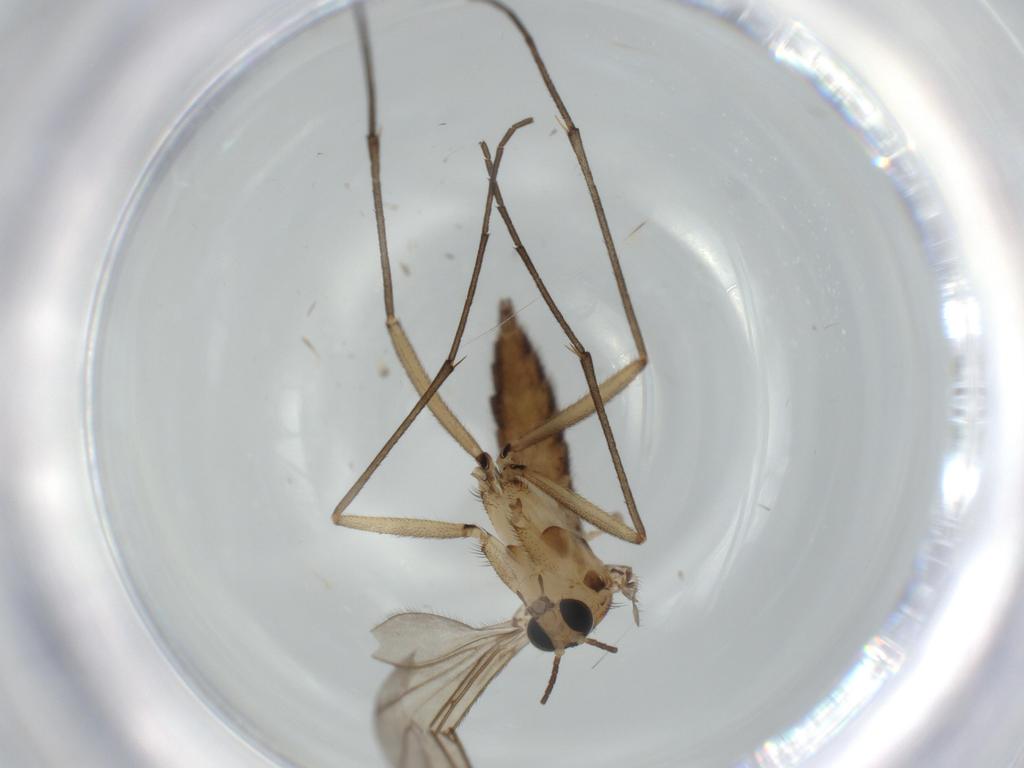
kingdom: Animalia
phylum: Arthropoda
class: Insecta
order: Diptera
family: Sciaridae
